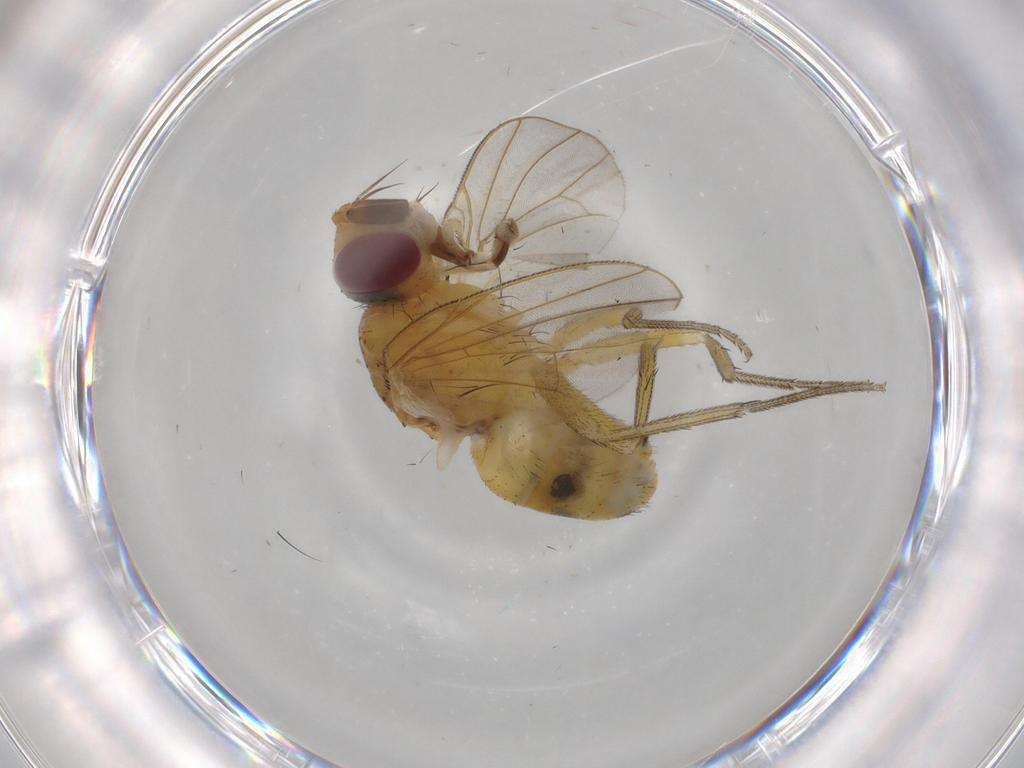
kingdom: Animalia
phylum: Arthropoda
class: Insecta
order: Diptera
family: Muscidae
